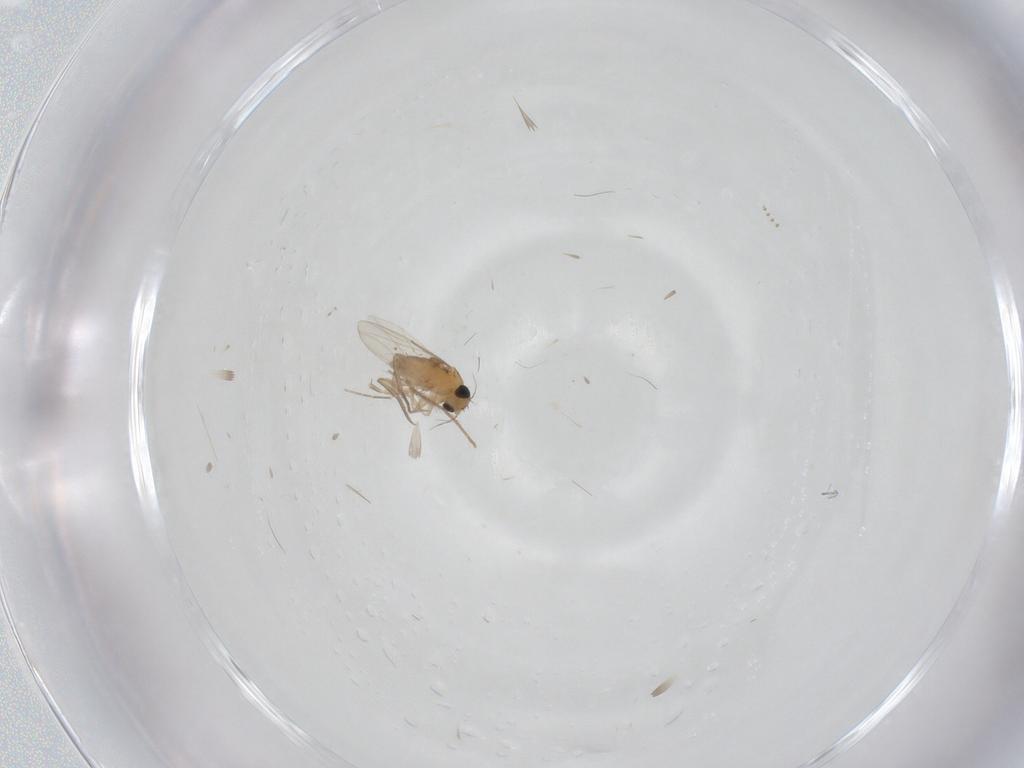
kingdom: Animalia
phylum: Arthropoda
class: Insecta
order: Diptera
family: Phoridae
